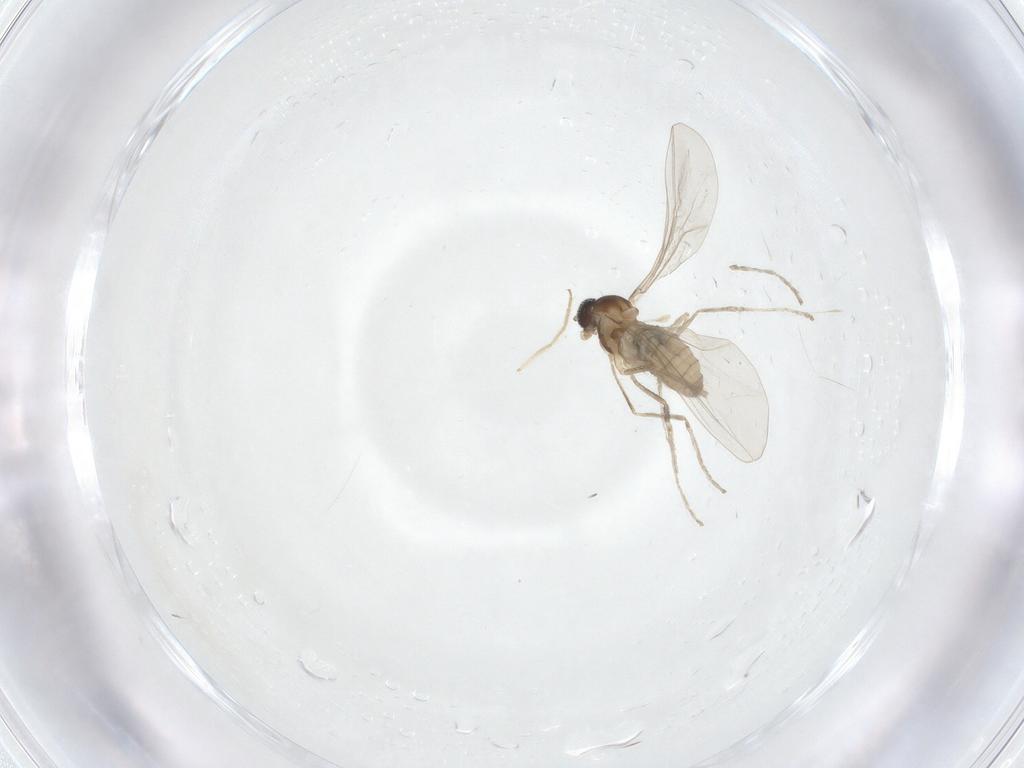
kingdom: Animalia
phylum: Arthropoda
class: Insecta
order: Diptera
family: Cecidomyiidae
